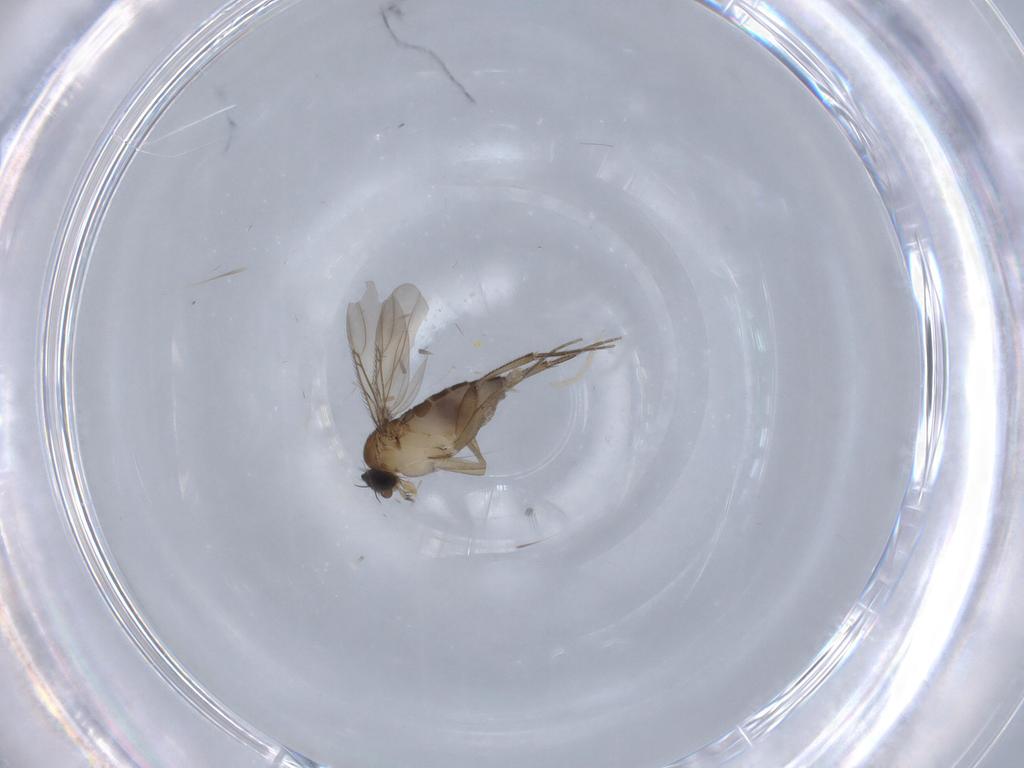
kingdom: Animalia
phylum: Arthropoda
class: Insecta
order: Diptera
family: Phoridae
